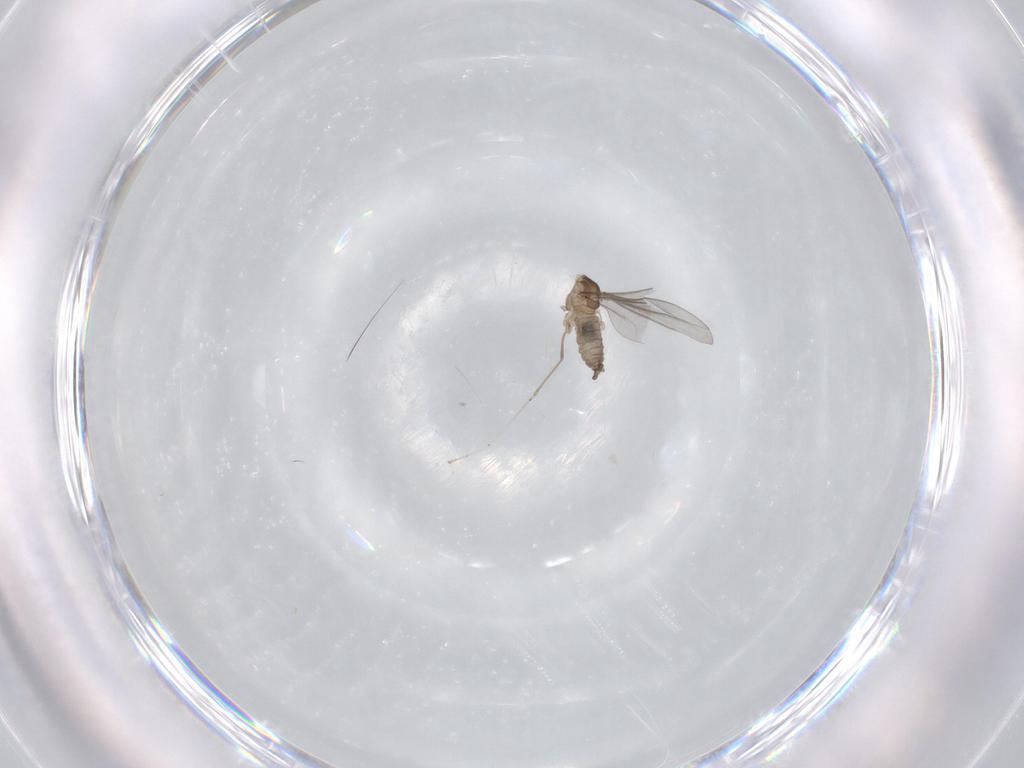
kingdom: Animalia
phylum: Arthropoda
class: Insecta
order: Diptera
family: Cecidomyiidae
